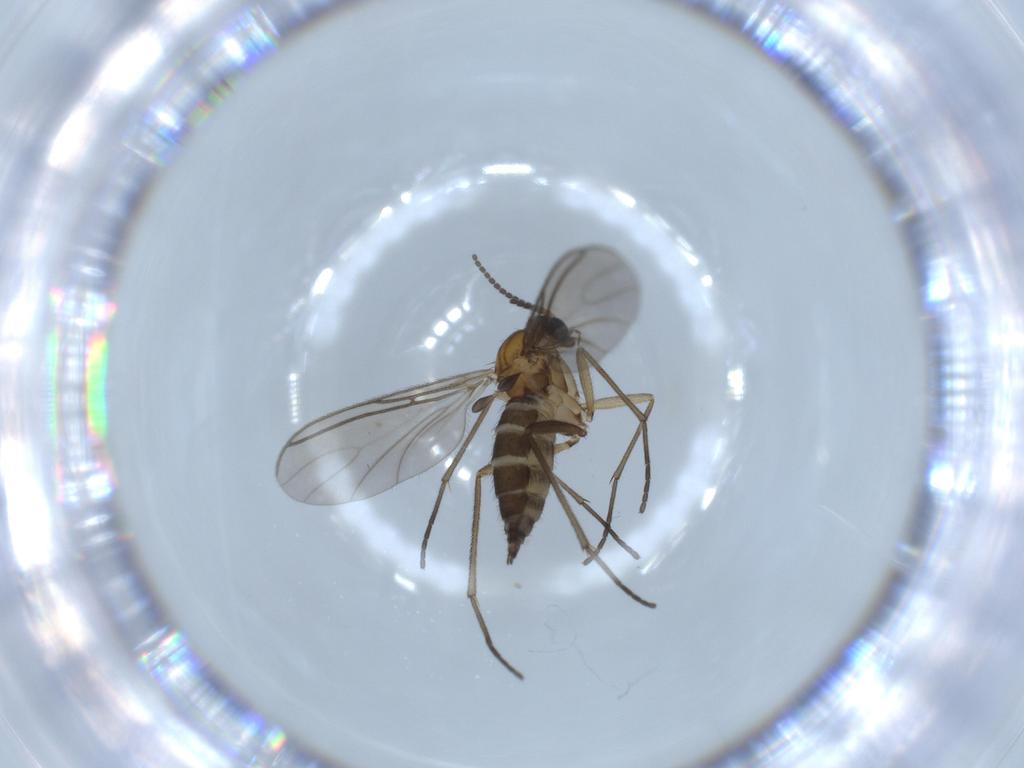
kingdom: Animalia
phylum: Arthropoda
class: Insecta
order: Diptera
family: Sciaridae
